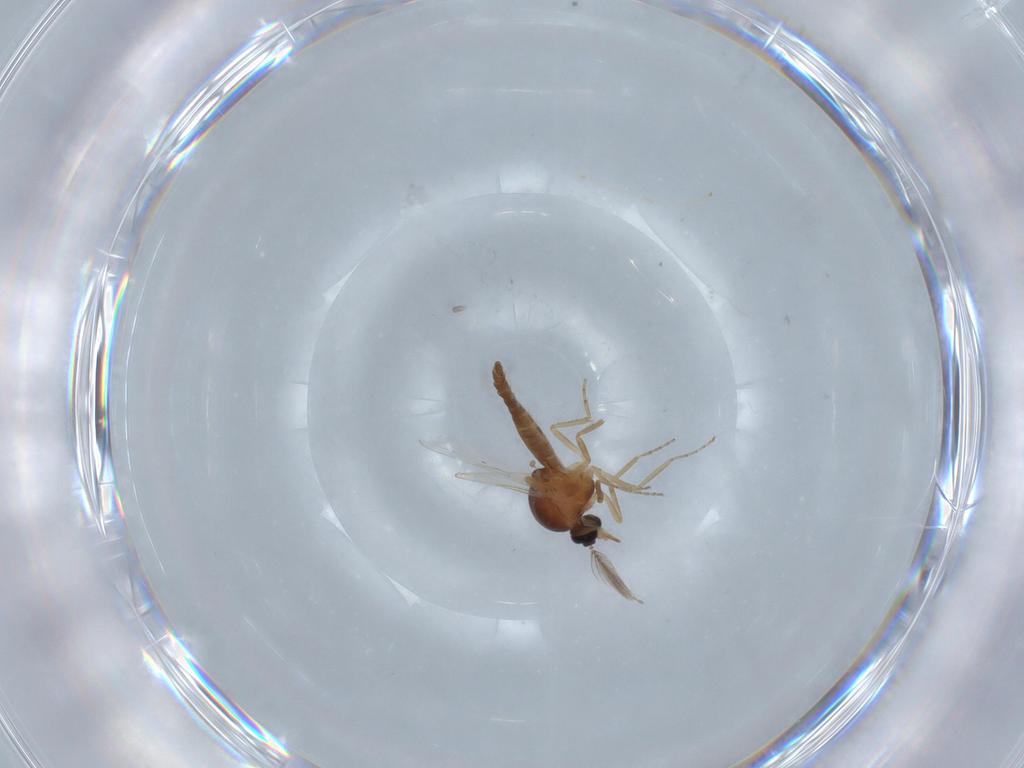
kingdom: Animalia
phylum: Arthropoda
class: Insecta
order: Diptera
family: Ceratopogonidae
